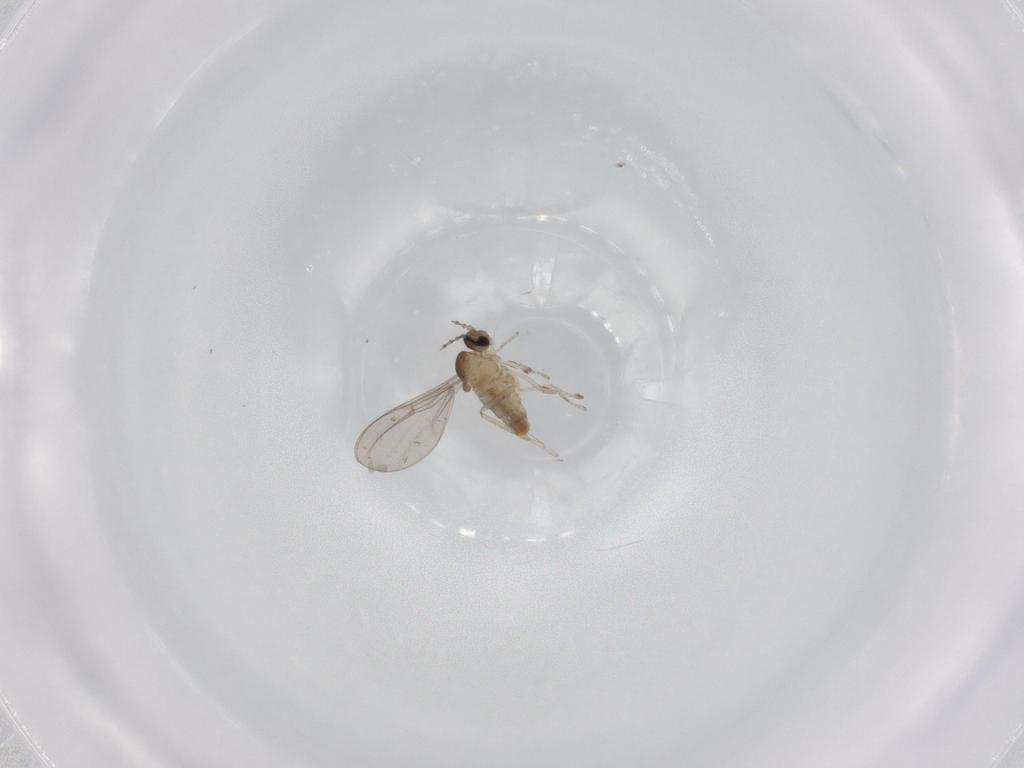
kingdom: Animalia
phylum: Arthropoda
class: Insecta
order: Diptera
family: Cecidomyiidae
